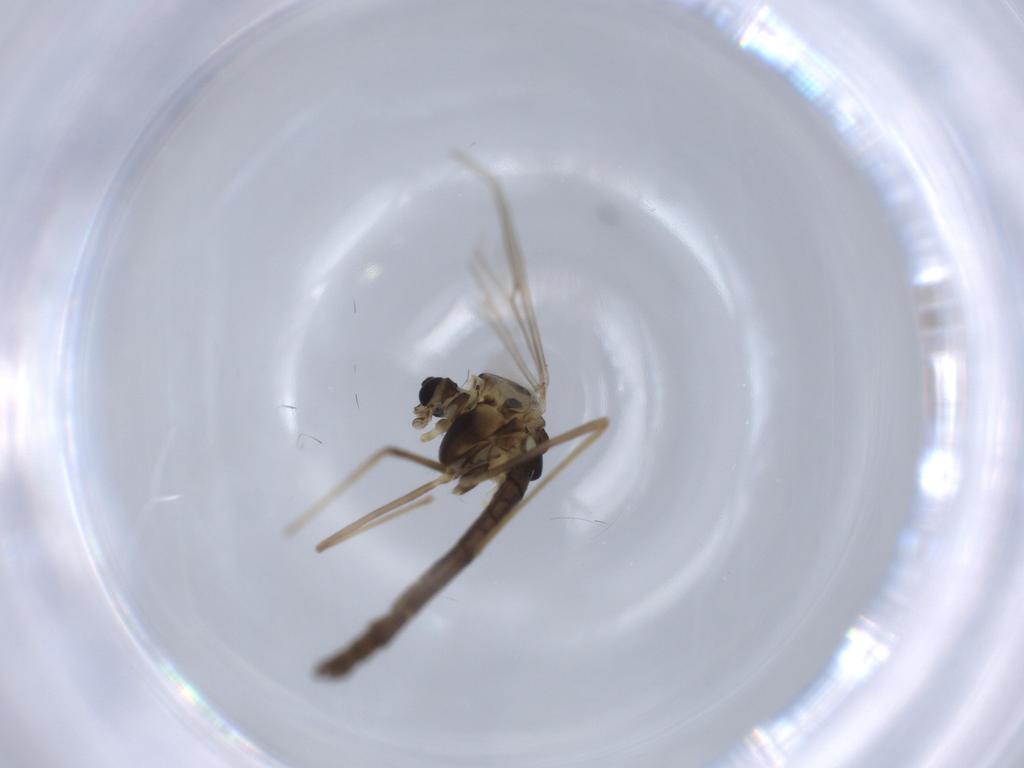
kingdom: Animalia
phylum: Arthropoda
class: Insecta
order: Diptera
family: Chironomidae
